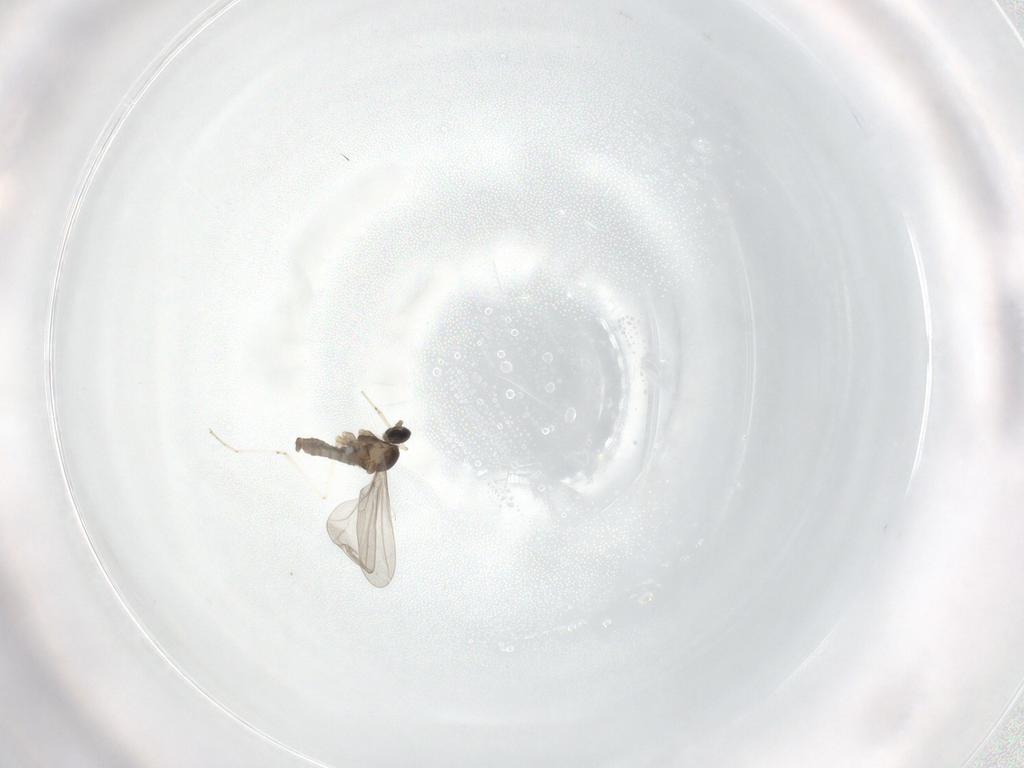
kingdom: Animalia
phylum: Arthropoda
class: Insecta
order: Diptera
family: Cecidomyiidae
